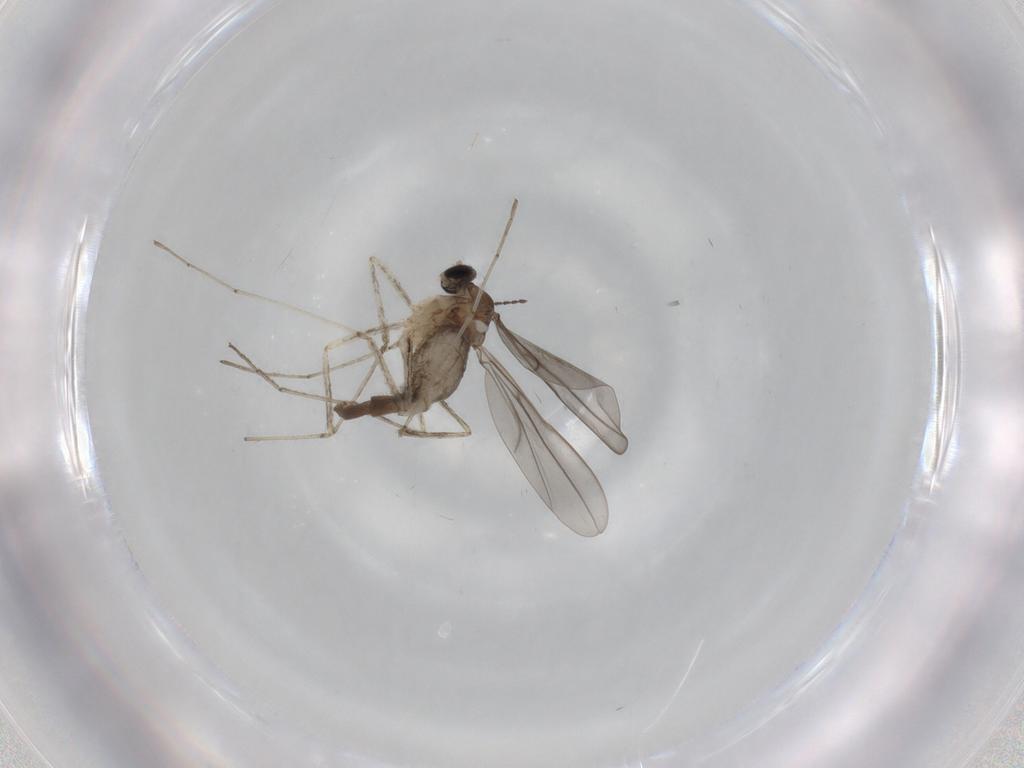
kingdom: Animalia
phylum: Arthropoda
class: Insecta
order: Diptera
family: Cecidomyiidae
